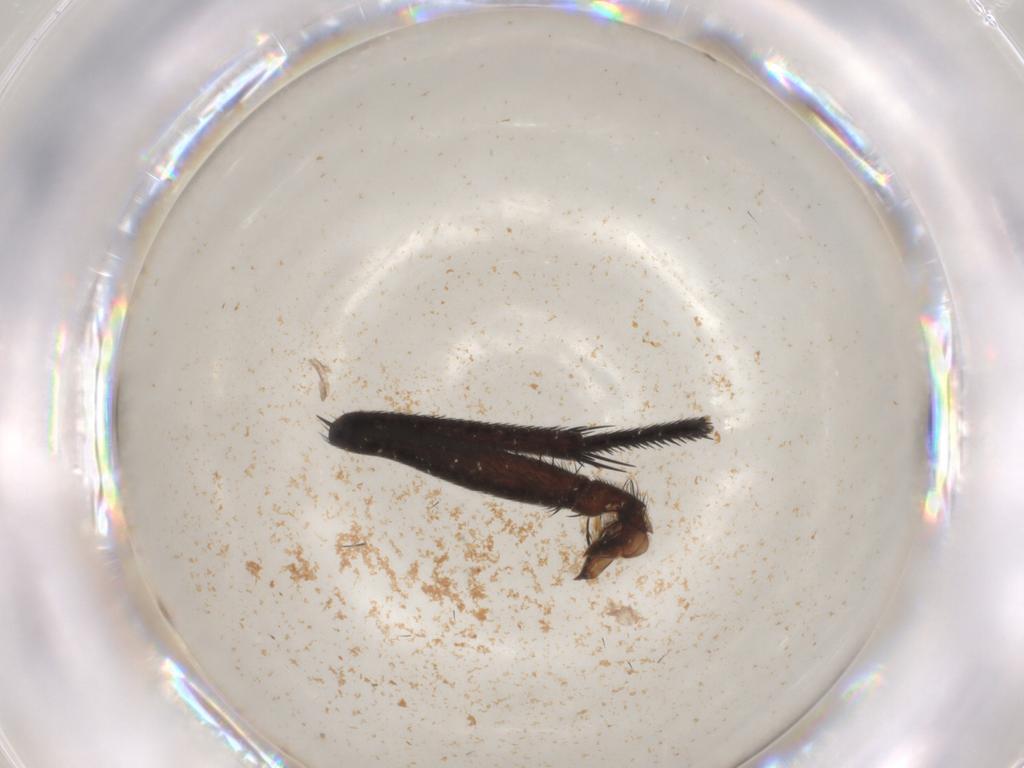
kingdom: Animalia
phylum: Arthropoda
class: Insecta
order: Diptera
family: Muscidae
